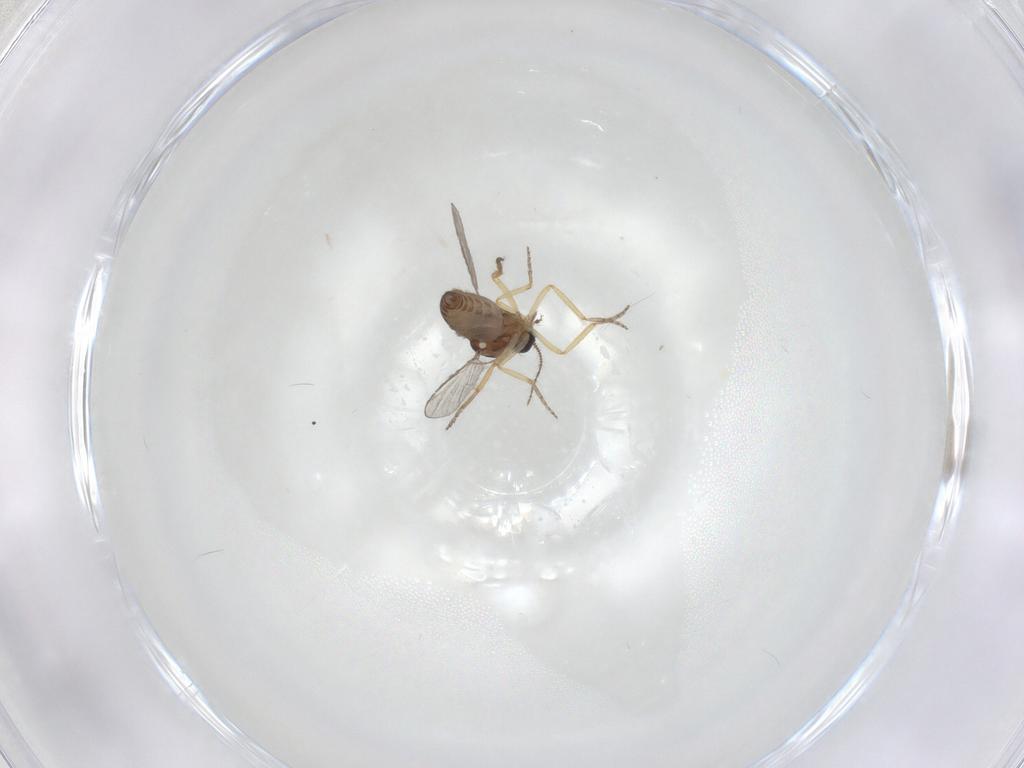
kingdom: Animalia
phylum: Arthropoda
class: Insecta
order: Diptera
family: Ceratopogonidae
